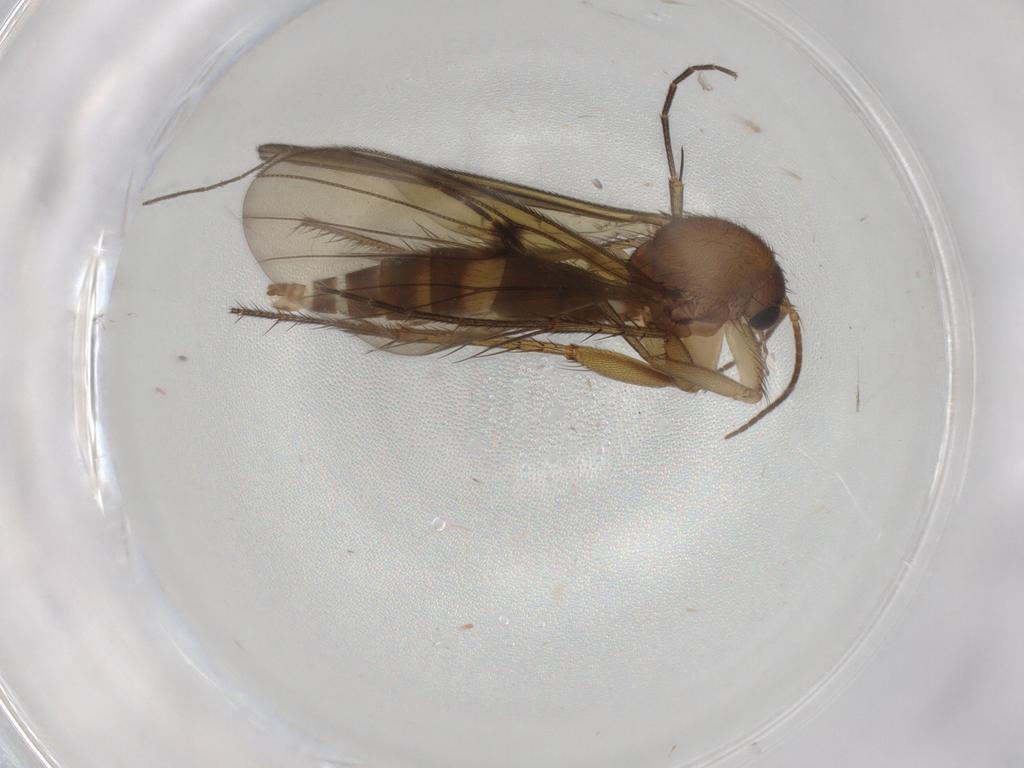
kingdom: Animalia
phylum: Arthropoda
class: Insecta
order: Diptera
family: Mycetophilidae
